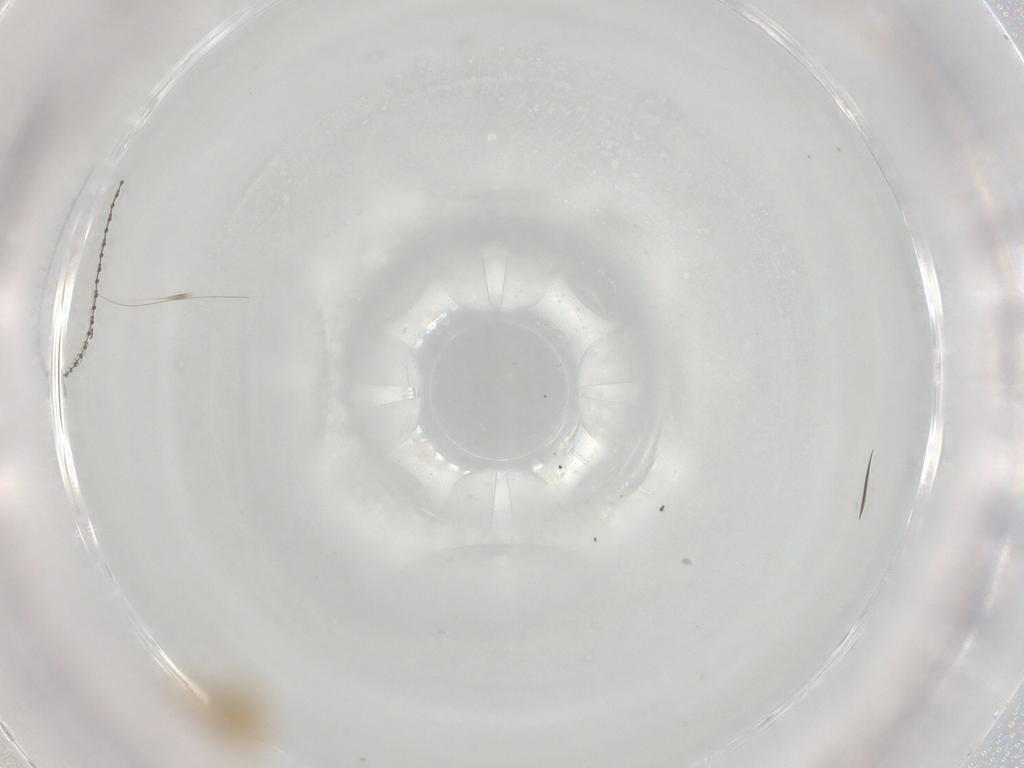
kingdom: Animalia
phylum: Arthropoda
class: Insecta
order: Diptera
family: Cecidomyiidae
